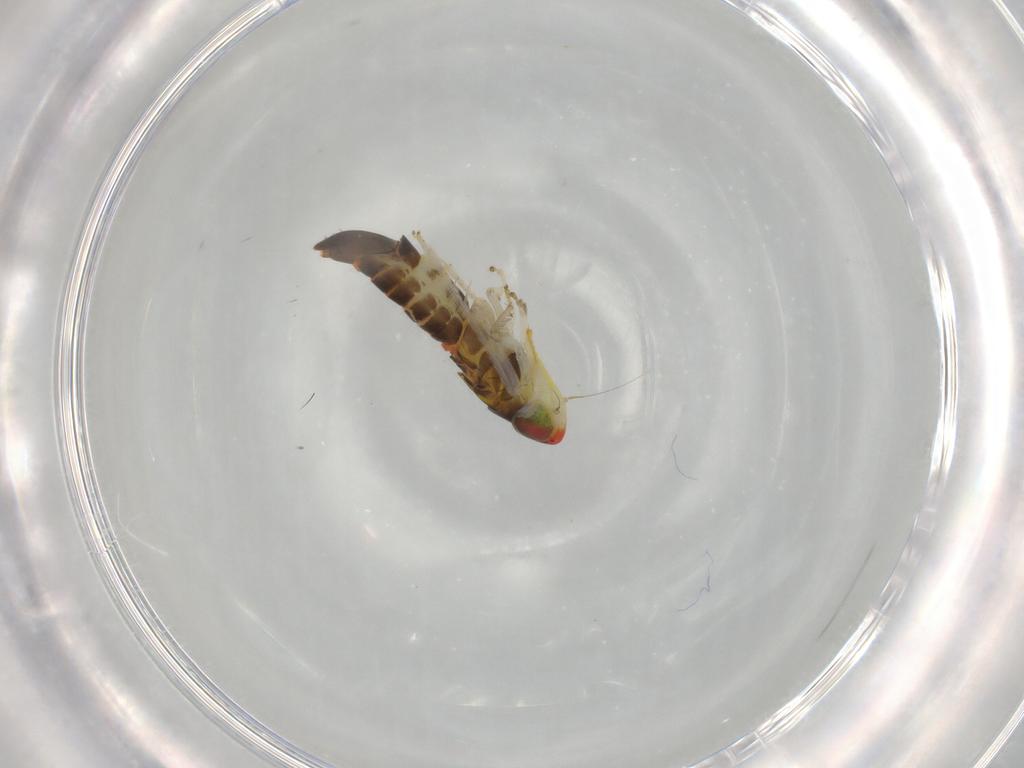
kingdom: Animalia
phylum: Arthropoda
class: Insecta
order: Hemiptera
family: Cicadellidae
